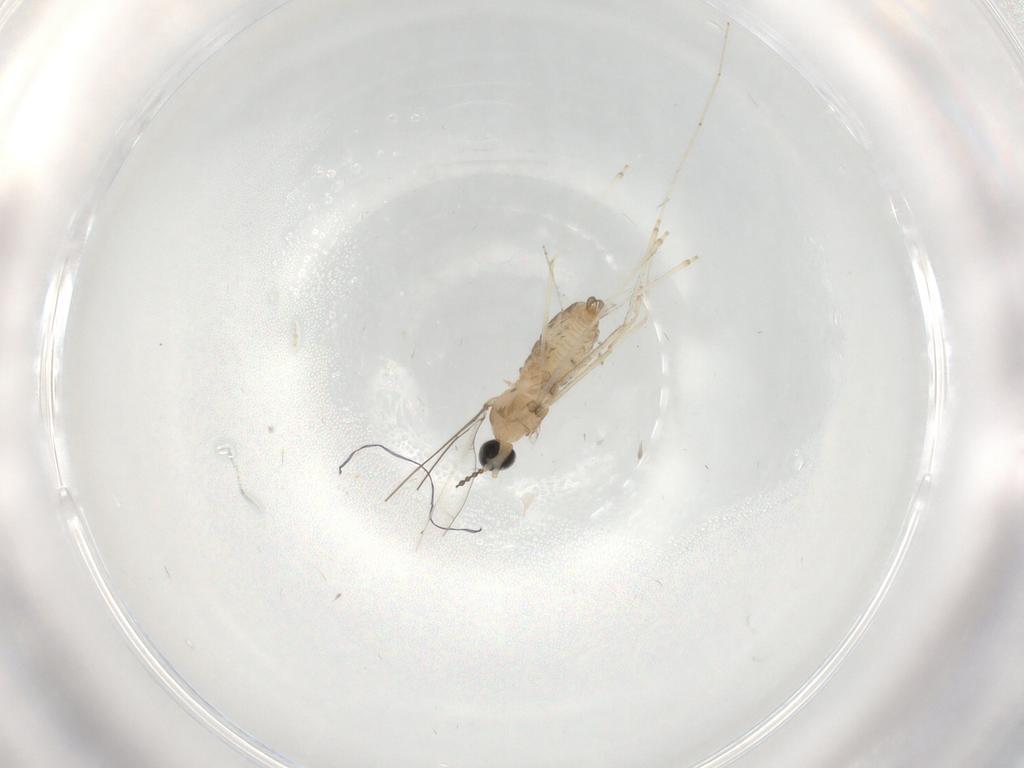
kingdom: Animalia
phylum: Arthropoda
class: Insecta
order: Diptera
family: Cecidomyiidae
